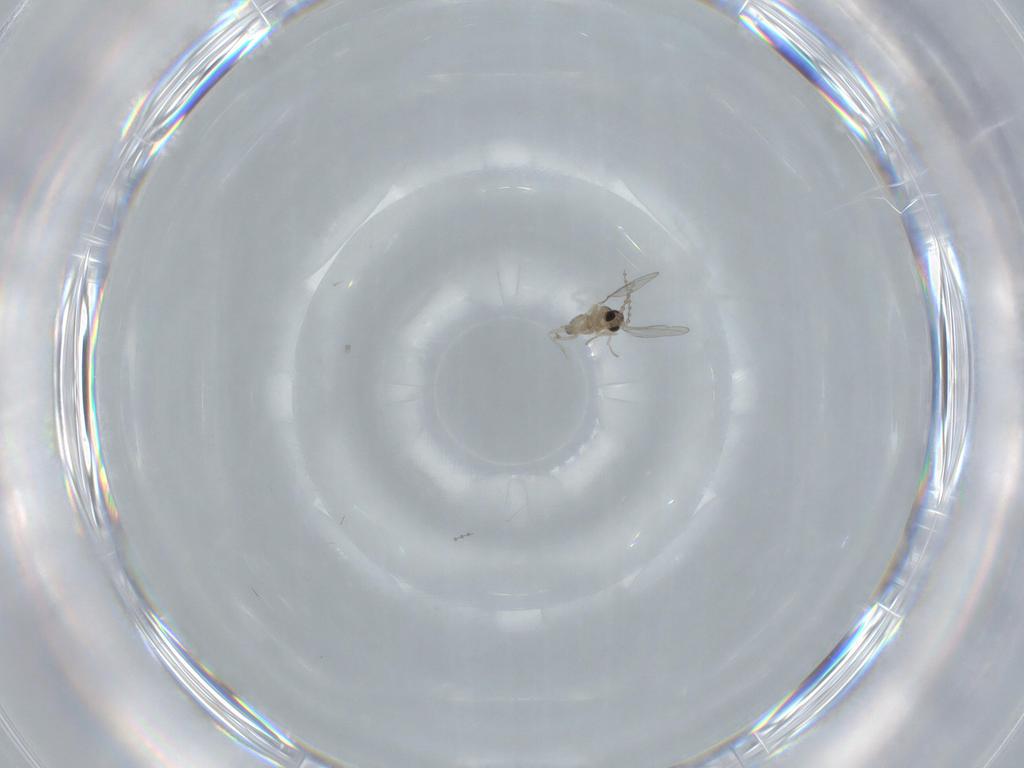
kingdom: Animalia
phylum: Arthropoda
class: Insecta
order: Diptera
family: Cecidomyiidae
